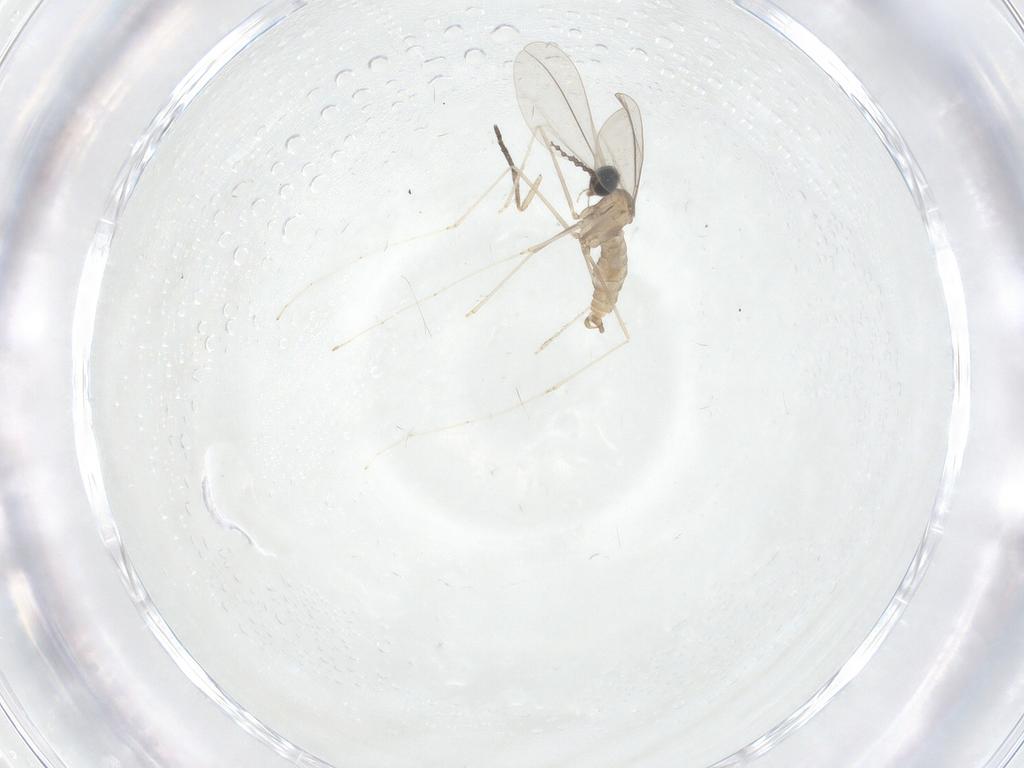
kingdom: Animalia
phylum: Arthropoda
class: Insecta
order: Diptera
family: Cecidomyiidae
